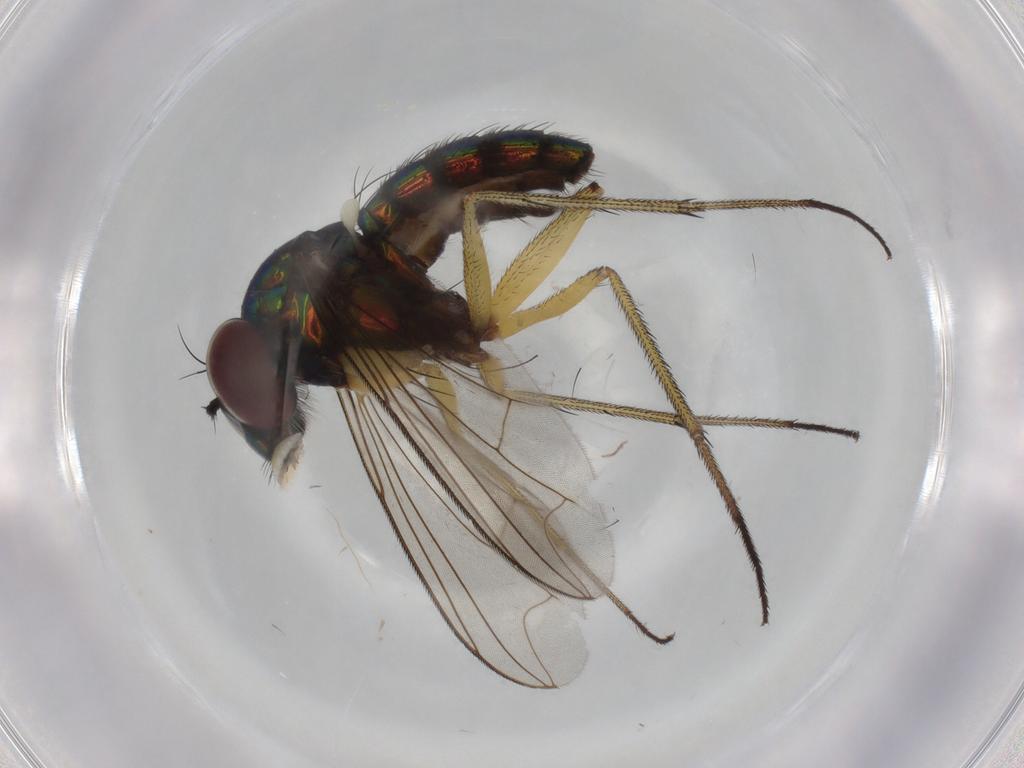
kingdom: Animalia
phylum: Arthropoda
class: Insecta
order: Diptera
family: Dolichopodidae
